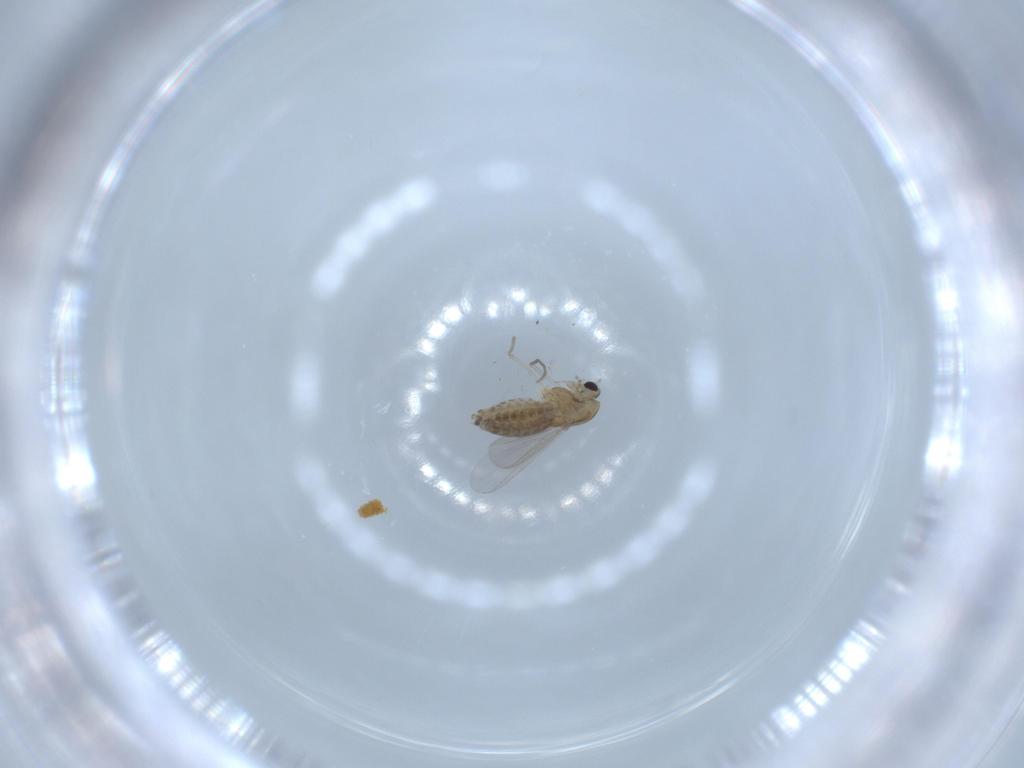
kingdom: Animalia
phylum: Arthropoda
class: Insecta
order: Diptera
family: Chironomidae
